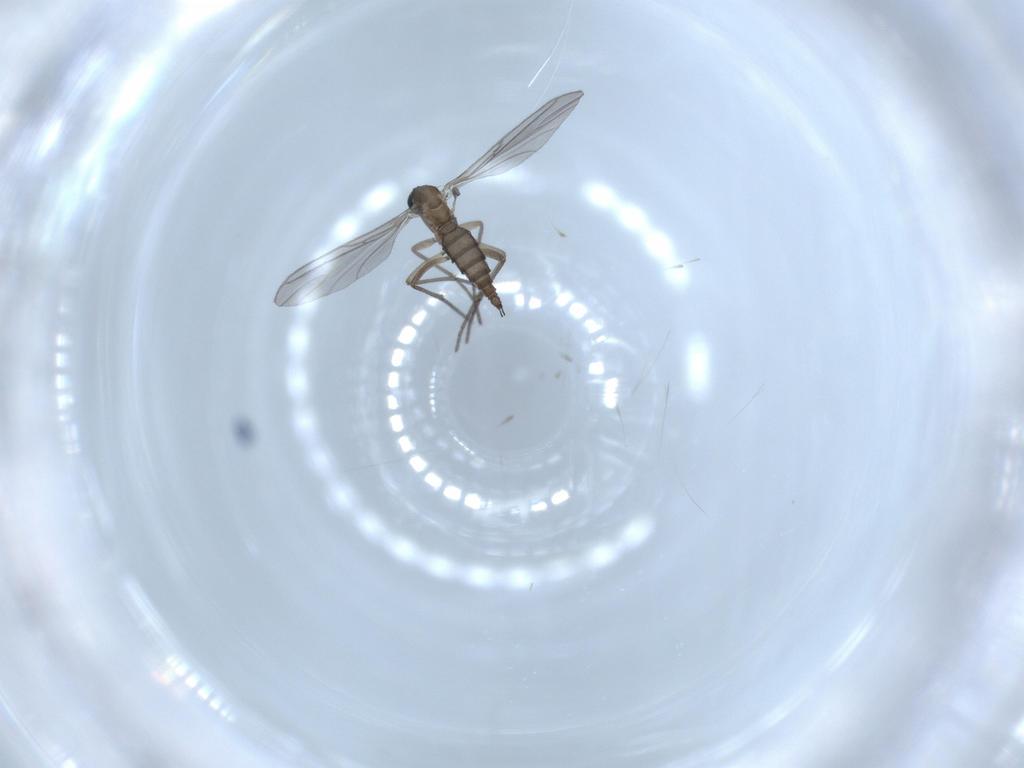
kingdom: Animalia
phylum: Arthropoda
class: Insecta
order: Diptera
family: Sciaridae
